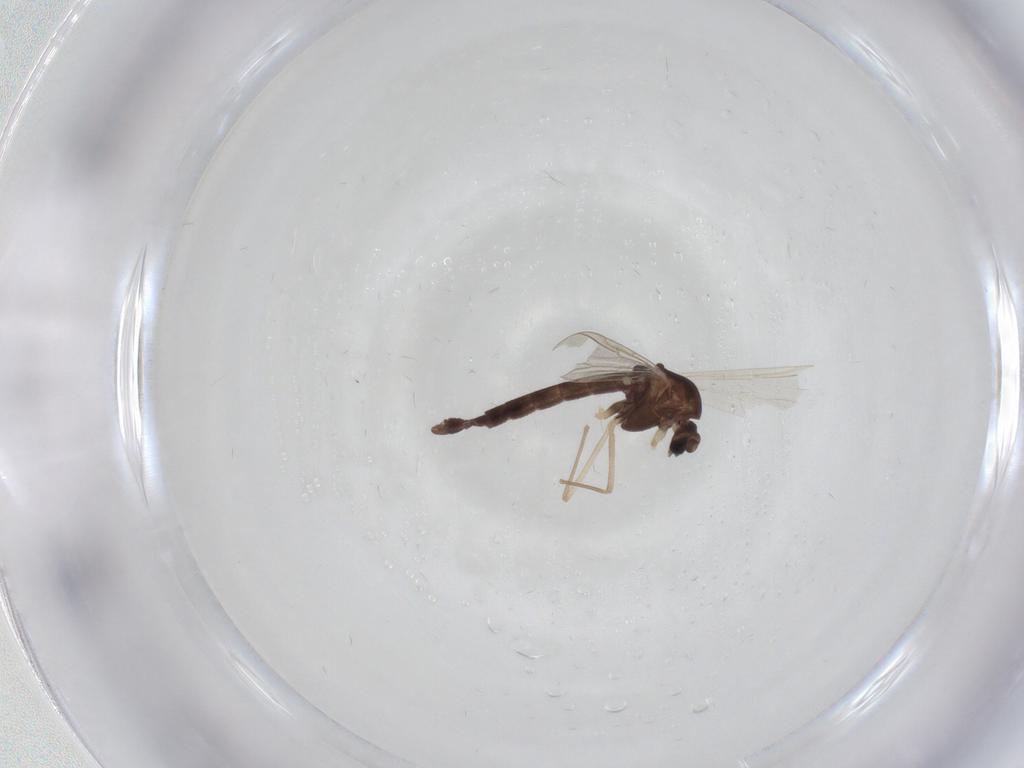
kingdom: Animalia
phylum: Arthropoda
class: Insecta
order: Diptera
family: Chironomidae
